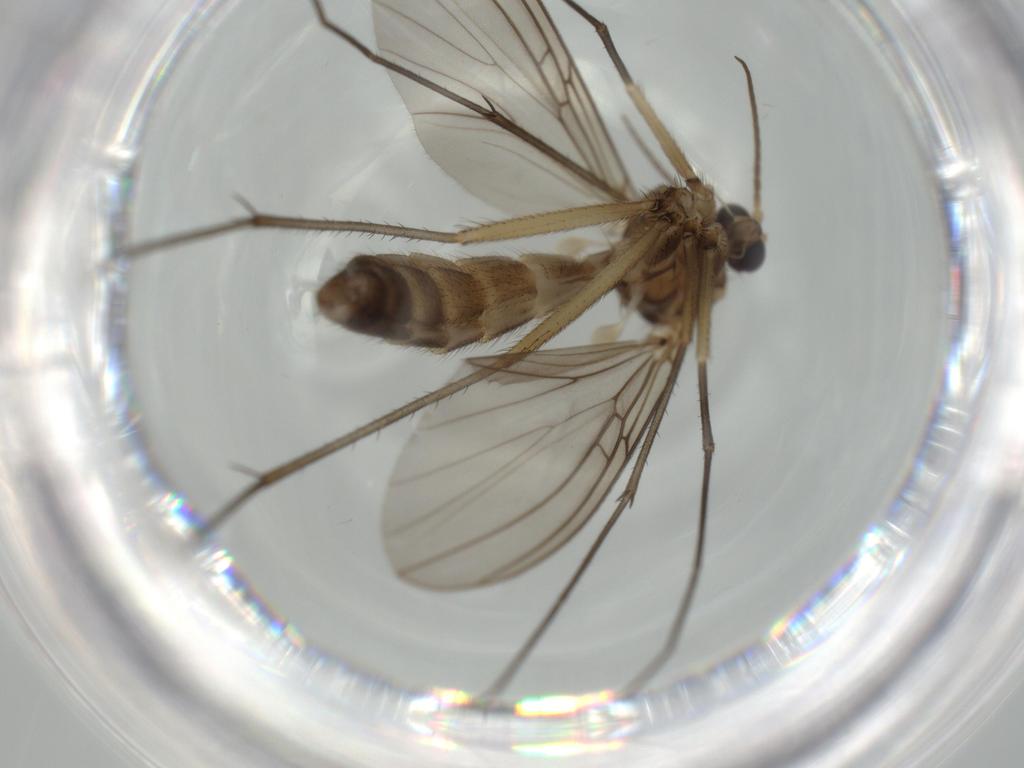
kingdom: Animalia
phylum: Arthropoda
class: Insecta
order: Diptera
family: Mycetophilidae
